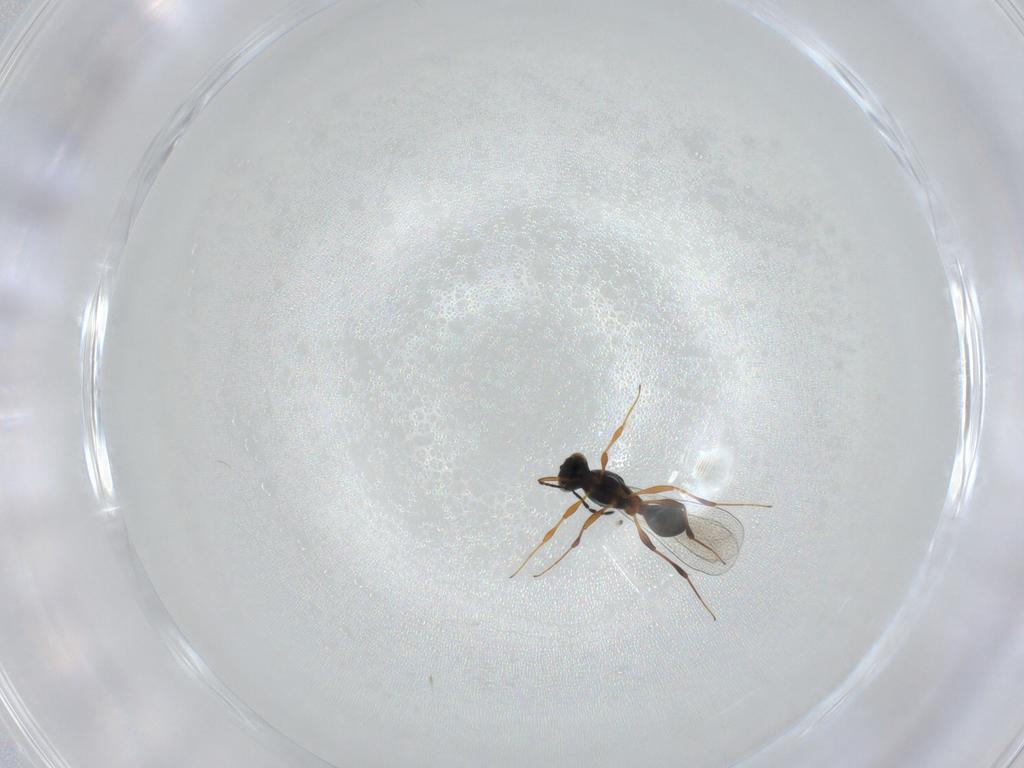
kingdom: Animalia
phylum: Arthropoda
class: Insecta
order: Hymenoptera
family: Platygastridae
